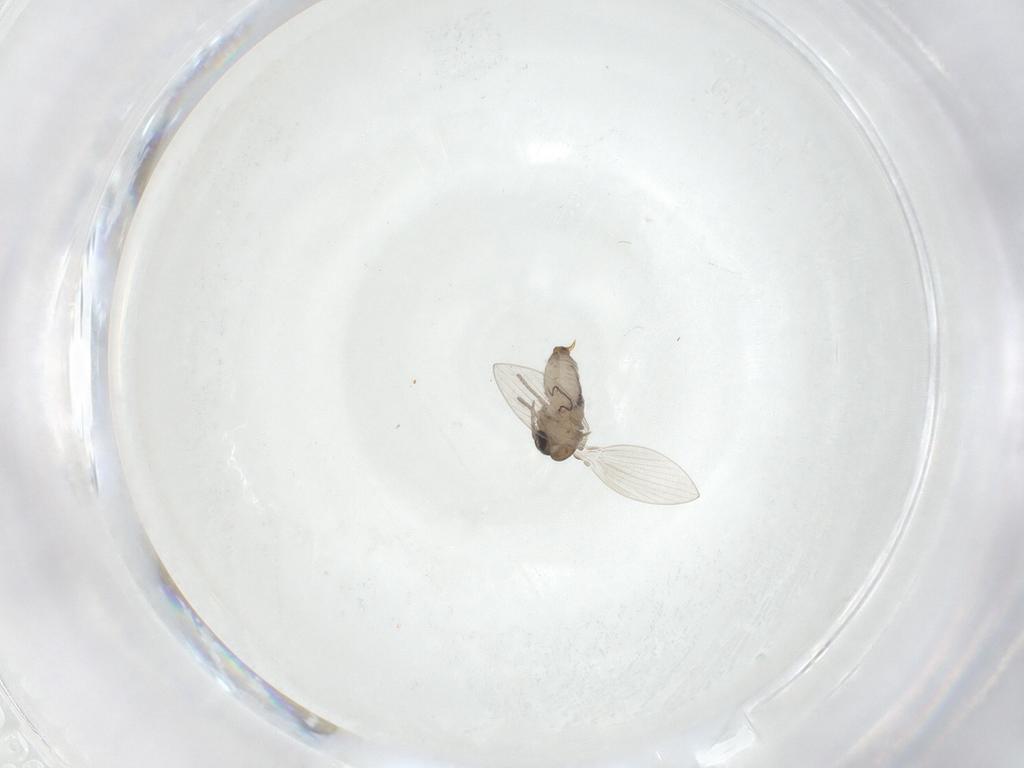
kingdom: Animalia
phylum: Arthropoda
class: Insecta
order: Diptera
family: Psychodidae
